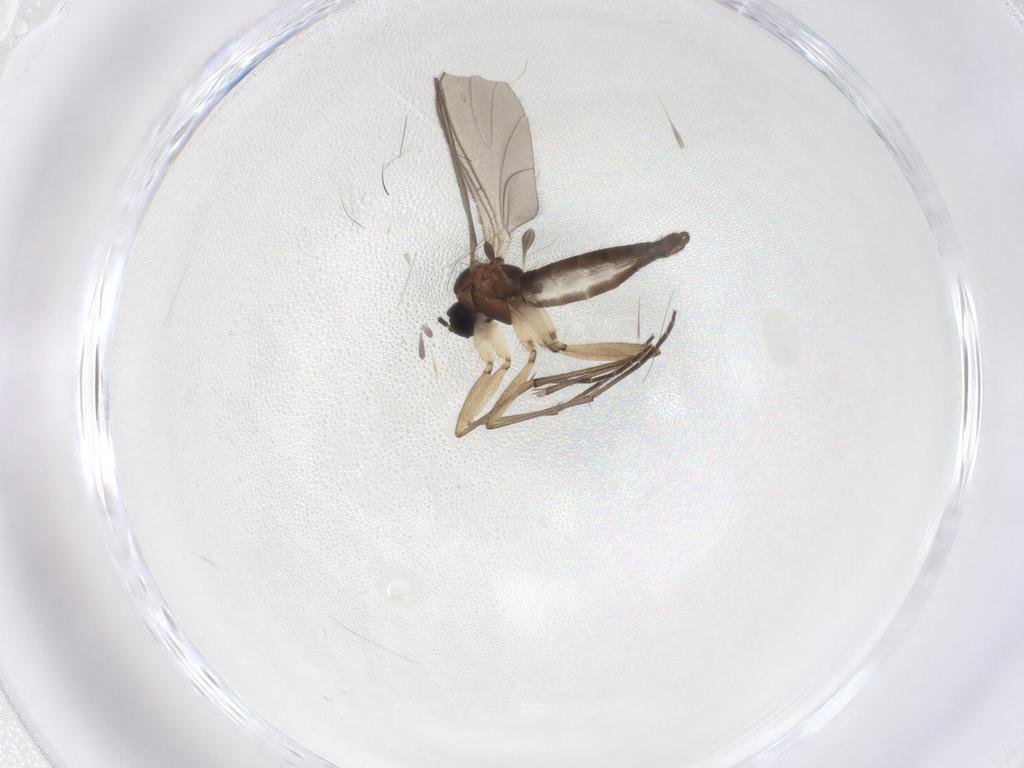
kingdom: Animalia
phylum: Arthropoda
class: Insecta
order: Diptera
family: Sciaridae
